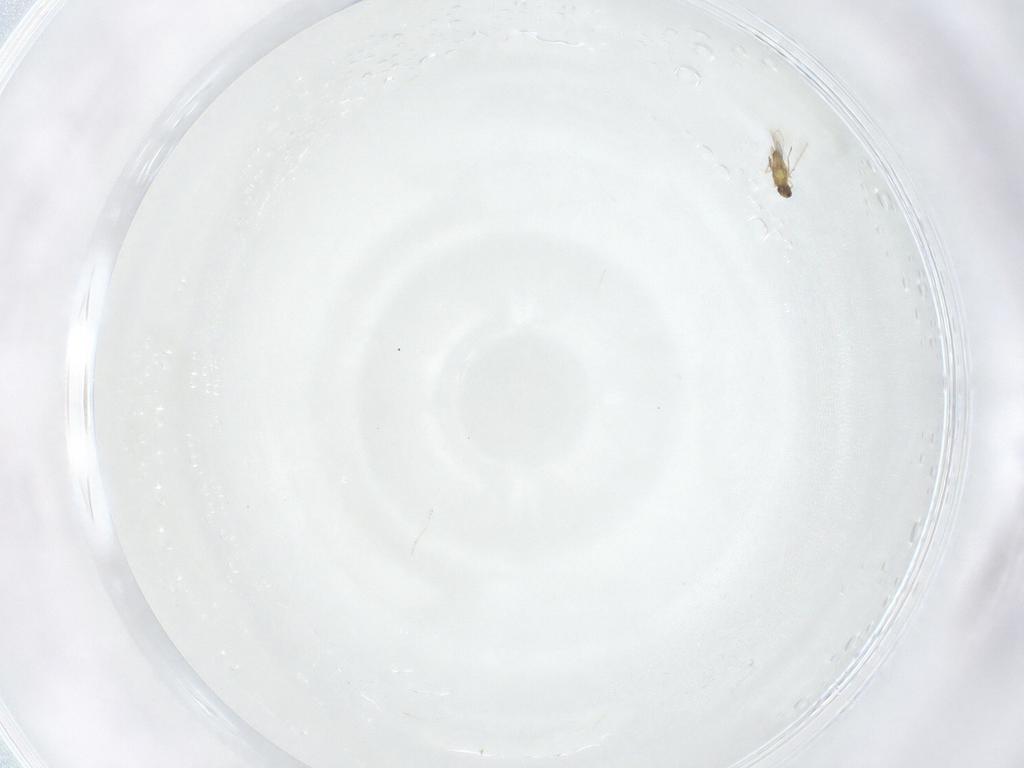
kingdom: Animalia
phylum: Arthropoda
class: Insecta
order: Hymenoptera
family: Mymaridae
